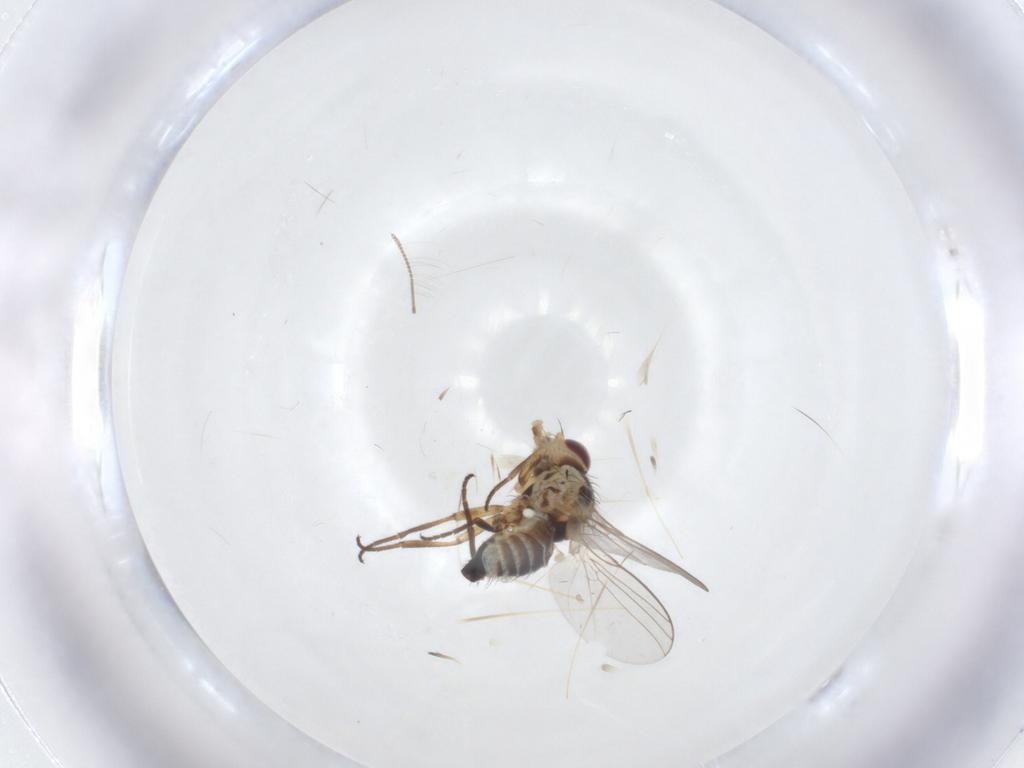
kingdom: Animalia
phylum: Arthropoda
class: Insecta
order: Diptera
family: Agromyzidae
